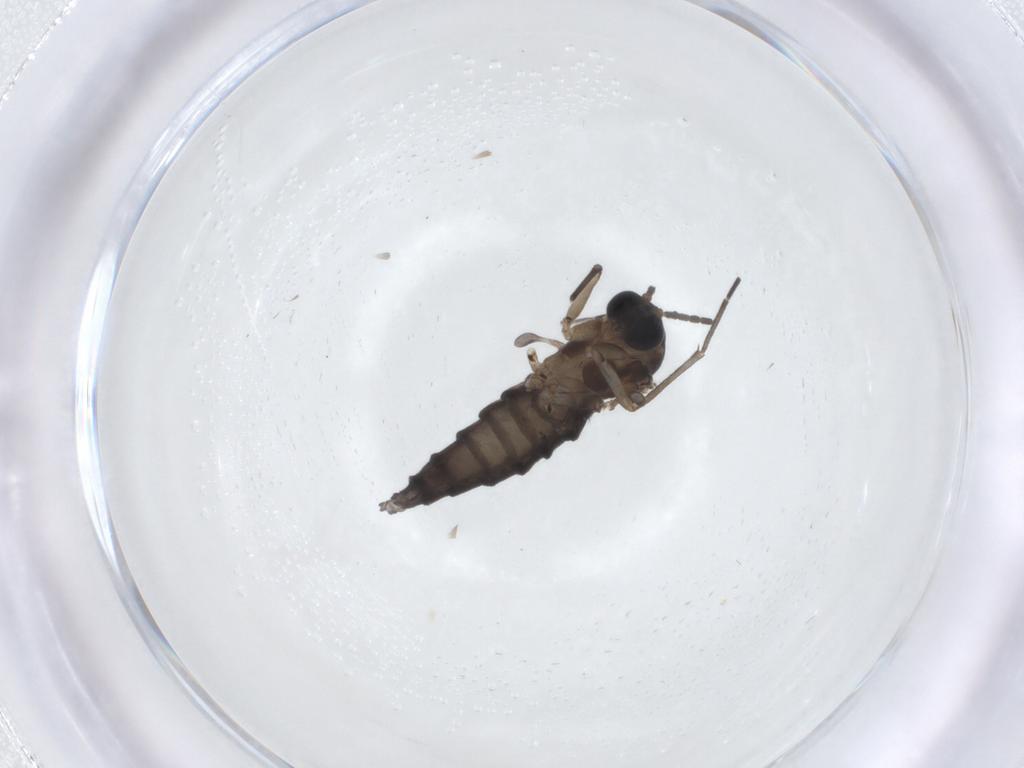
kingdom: Animalia
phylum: Arthropoda
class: Insecta
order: Diptera
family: Sciaridae
